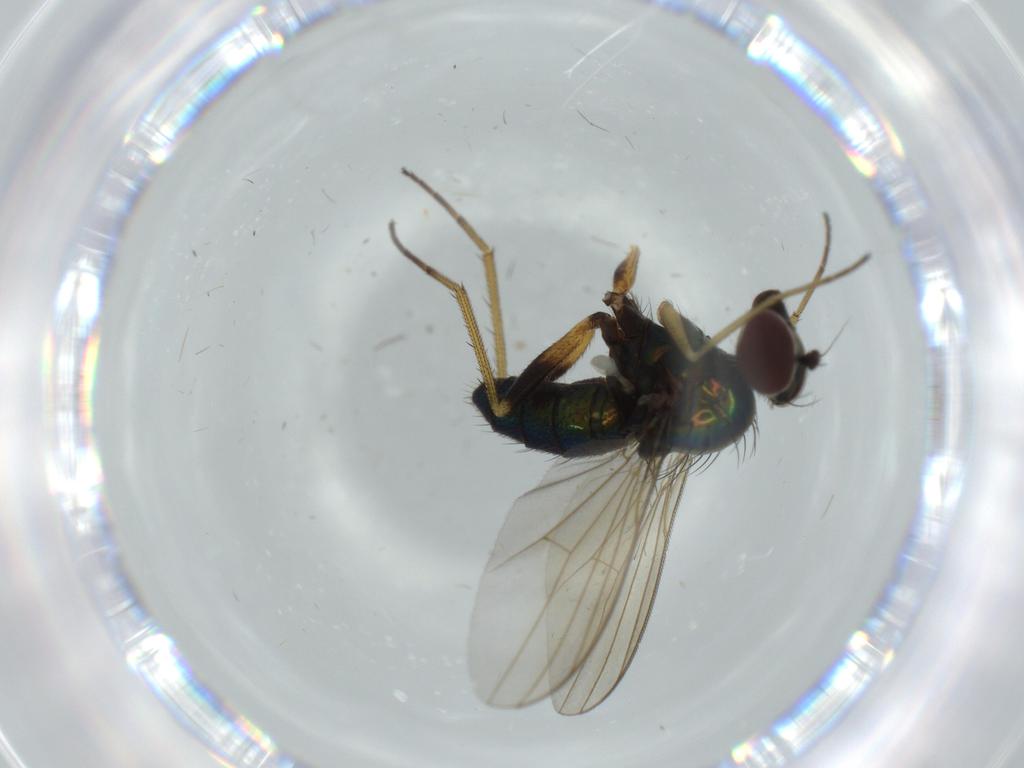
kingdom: Animalia
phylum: Arthropoda
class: Insecta
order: Diptera
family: Dolichopodidae
